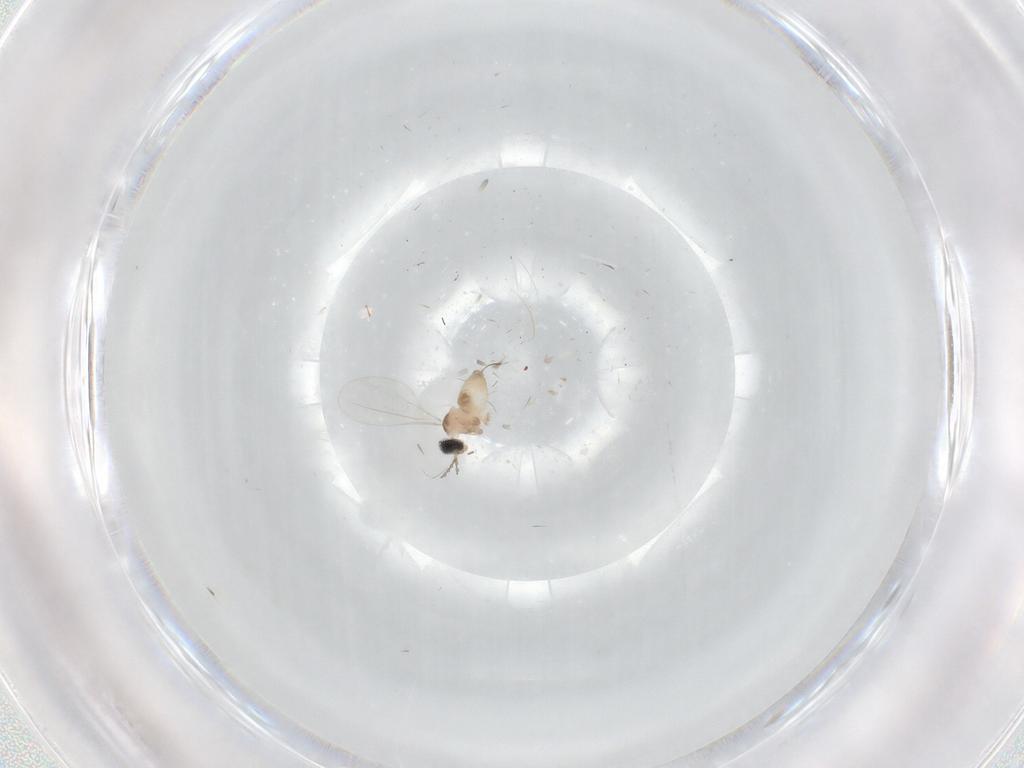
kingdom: Animalia
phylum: Arthropoda
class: Insecta
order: Diptera
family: Cecidomyiidae
